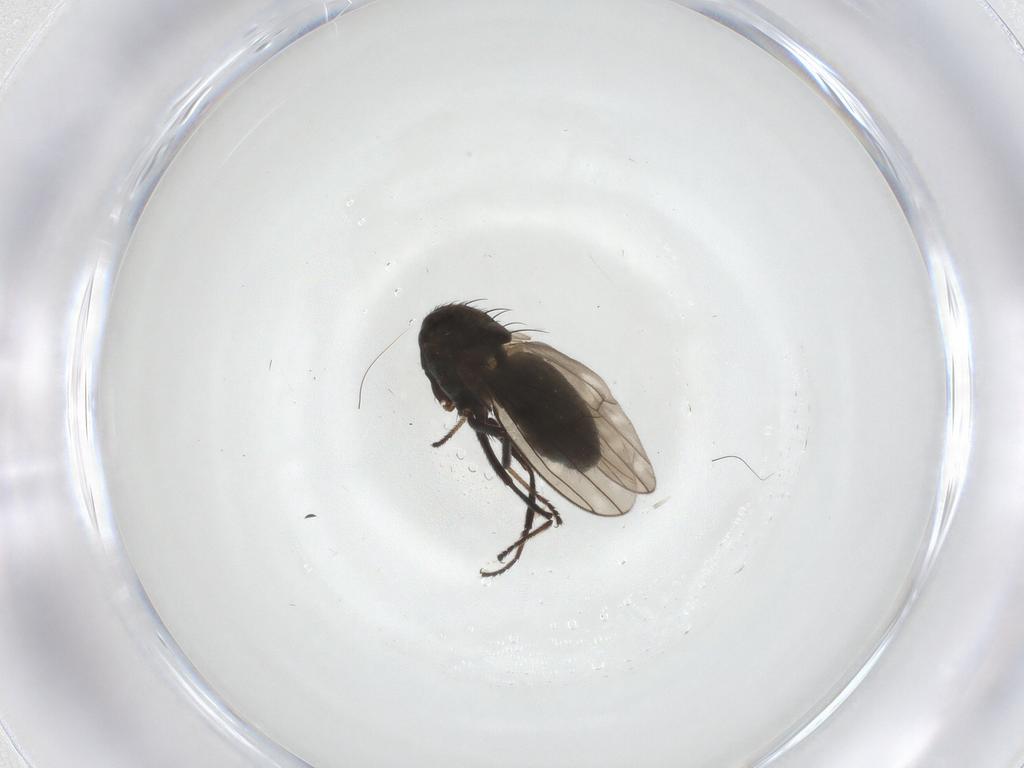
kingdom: Animalia
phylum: Arthropoda
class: Insecta
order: Diptera
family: Ephydridae
